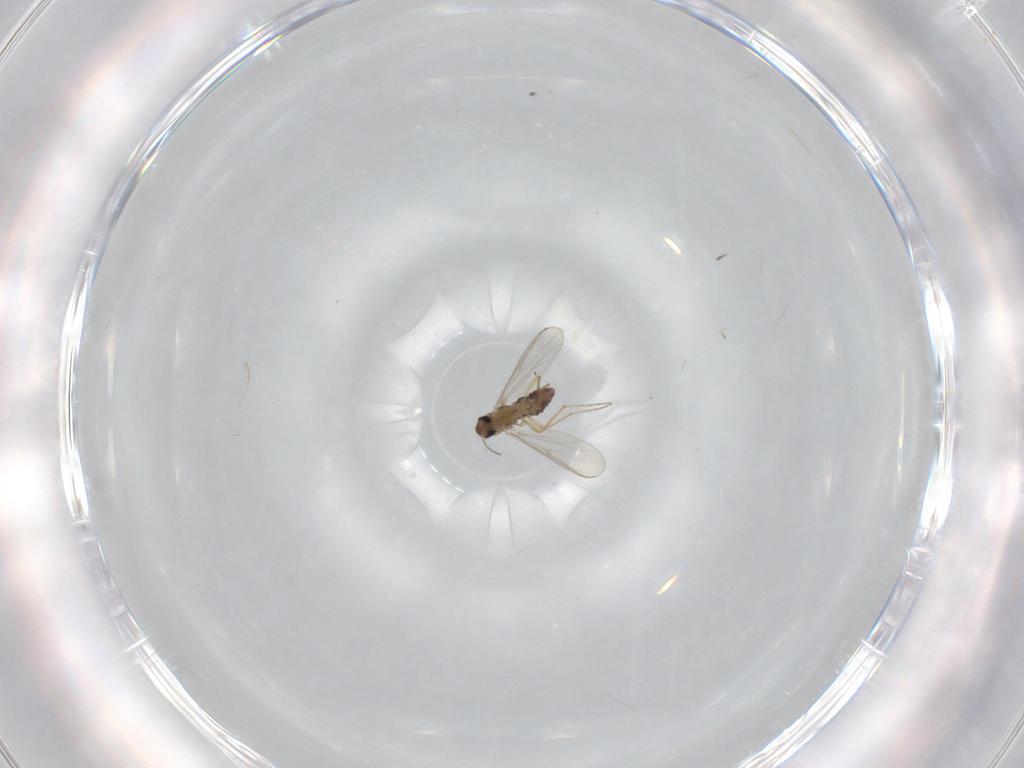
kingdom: Animalia
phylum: Arthropoda
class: Insecta
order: Diptera
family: Chironomidae
